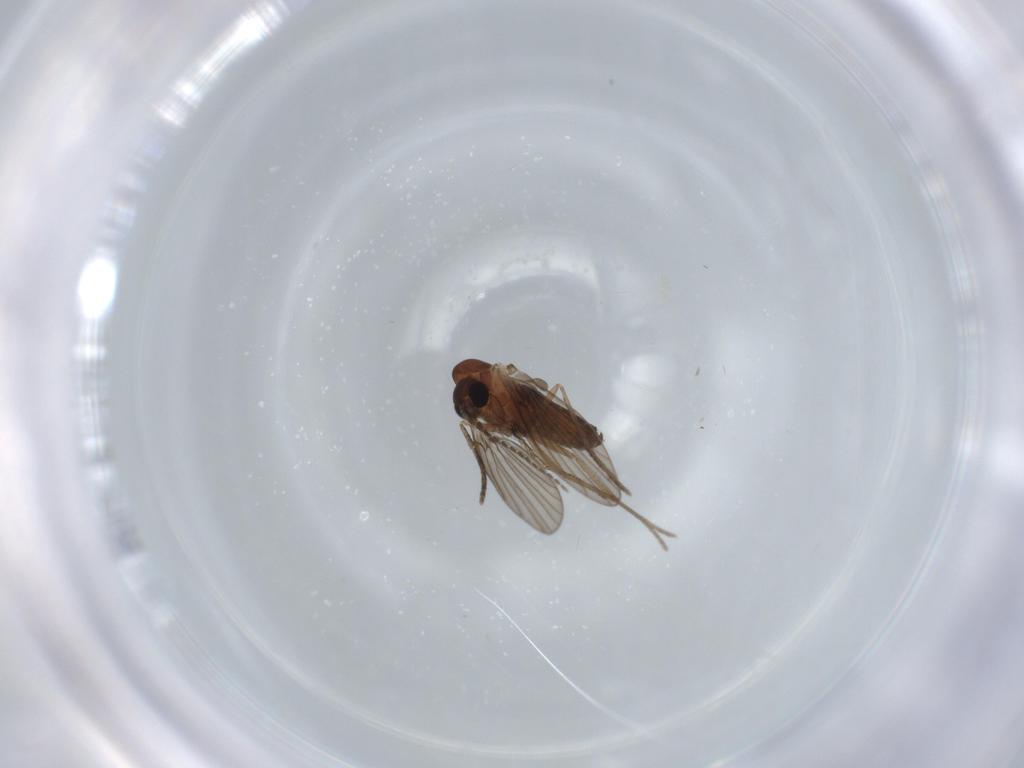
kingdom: Animalia
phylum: Arthropoda
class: Insecta
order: Diptera
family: Psychodidae
